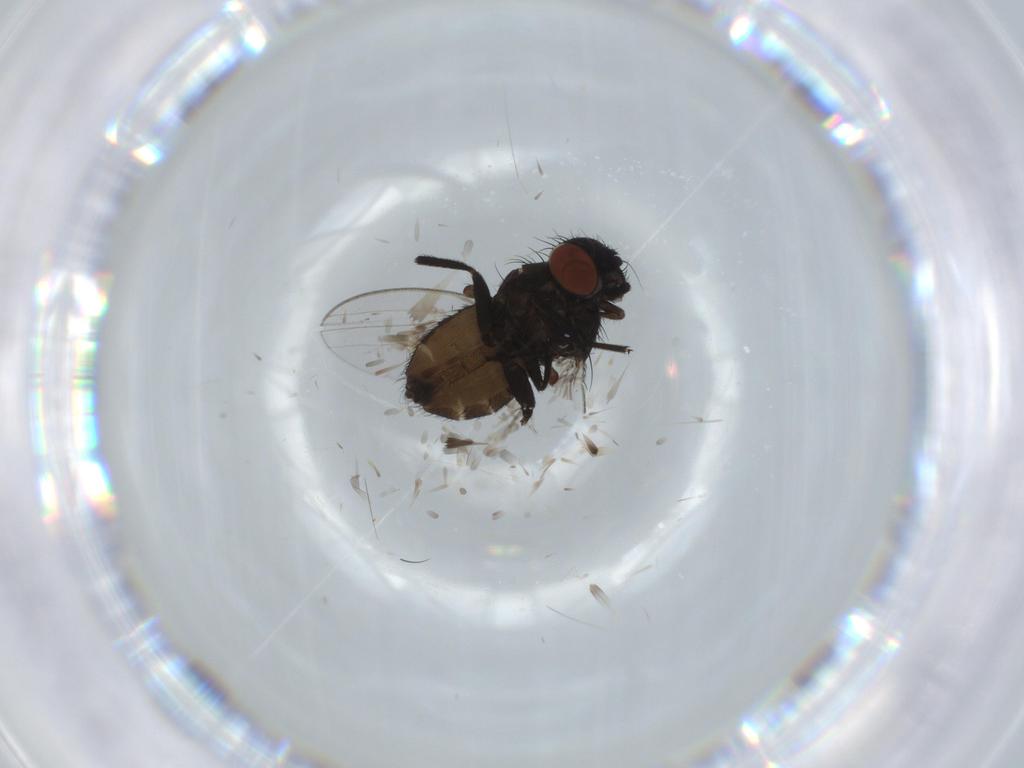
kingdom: Animalia
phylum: Arthropoda
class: Insecta
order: Diptera
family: Milichiidae
